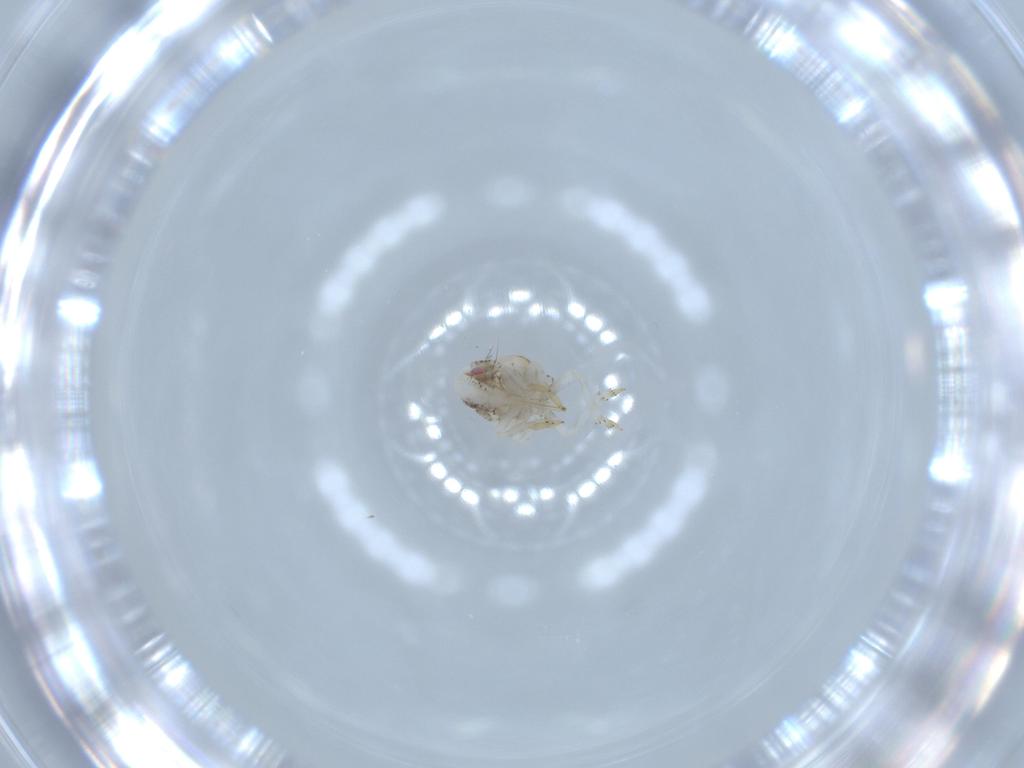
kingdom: Animalia
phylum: Arthropoda
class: Insecta
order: Hemiptera
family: Acanaloniidae
